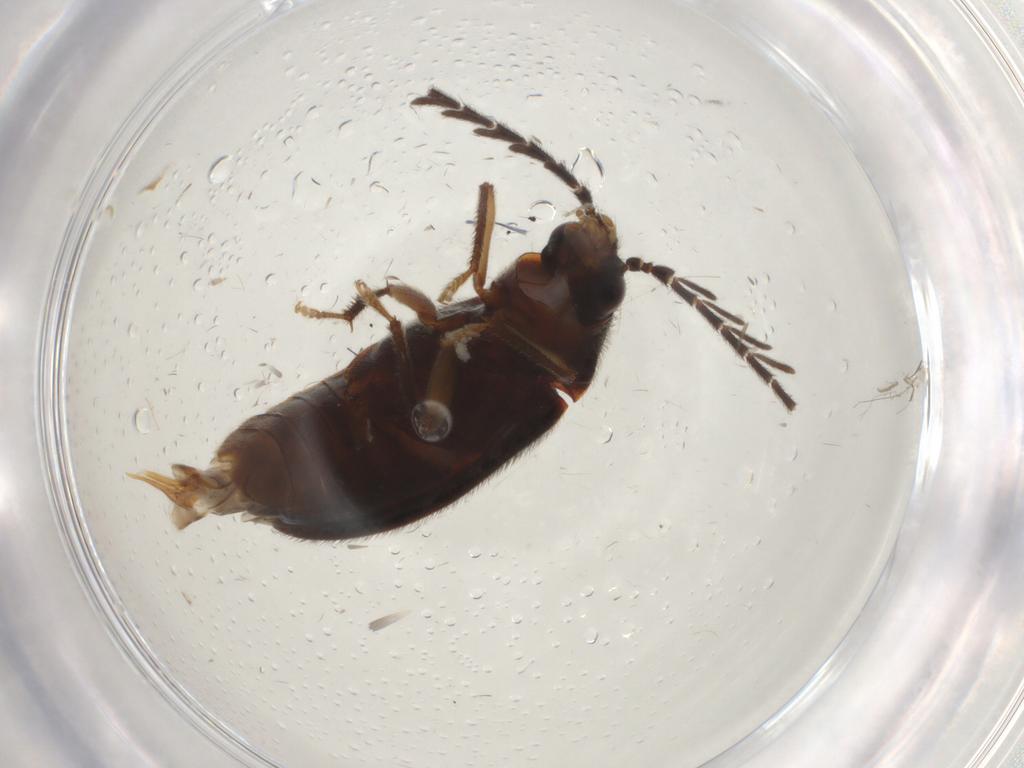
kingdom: Animalia
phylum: Arthropoda
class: Insecta
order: Coleoptera
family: Ptilodactylidae
